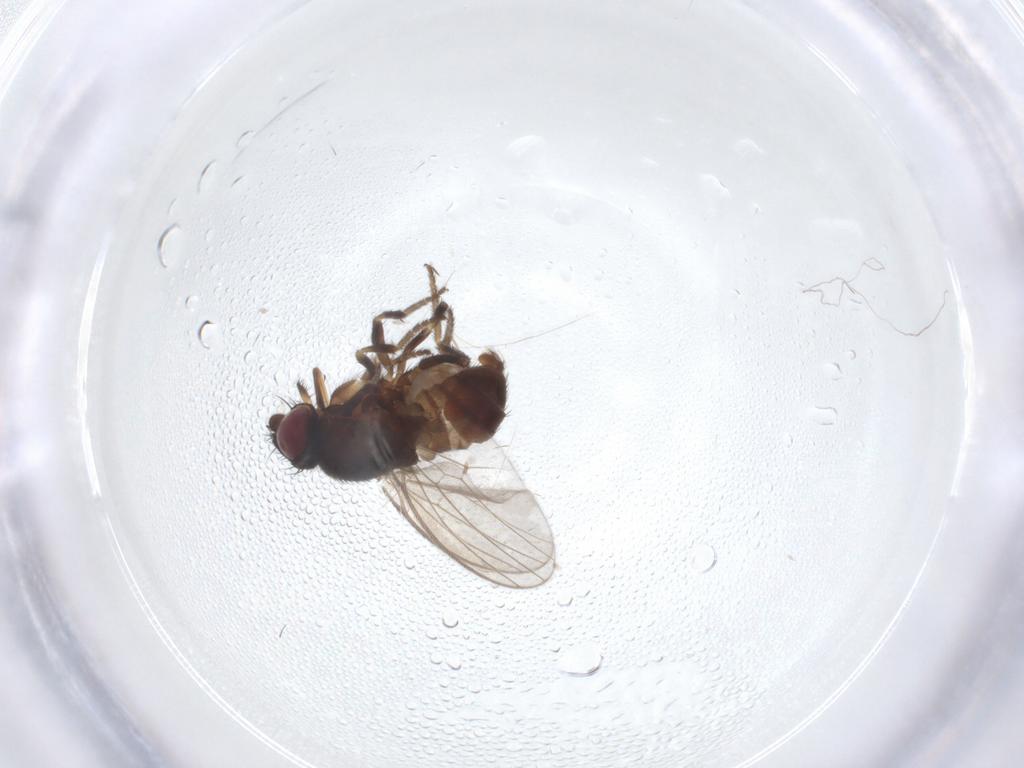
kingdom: Animalia
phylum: Arthropoda
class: Insecta
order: Diptera
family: Milichiidae
